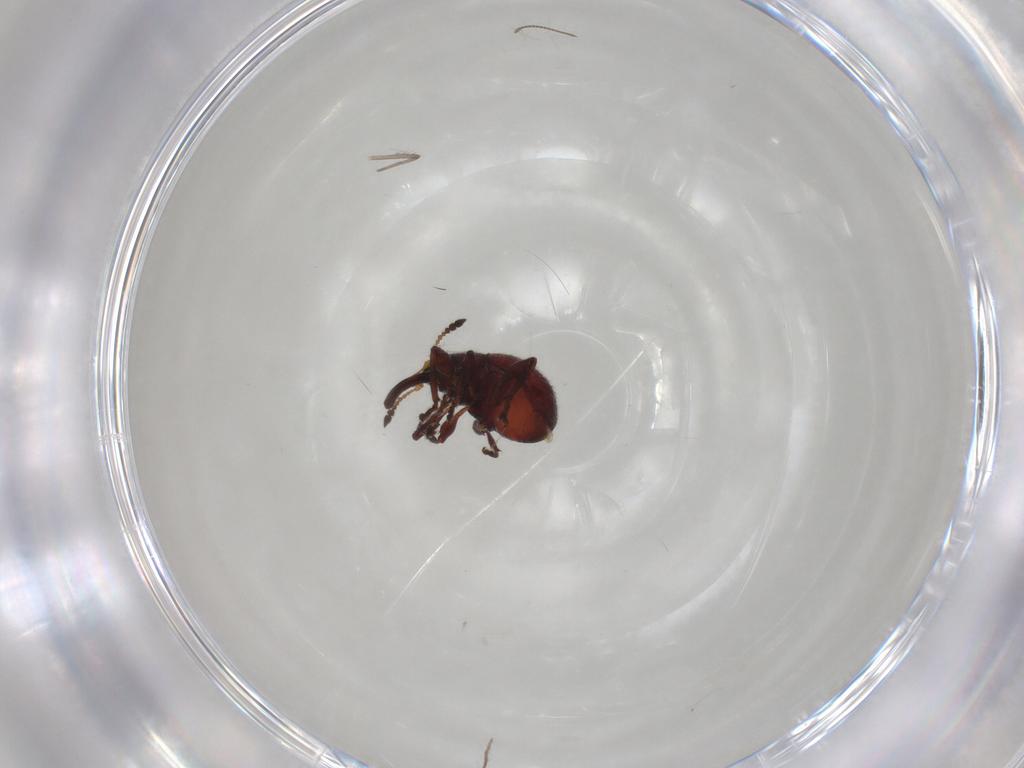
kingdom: Animalia
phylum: Arthropoda
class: Insecta
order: Coleoptera
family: Brentidae
